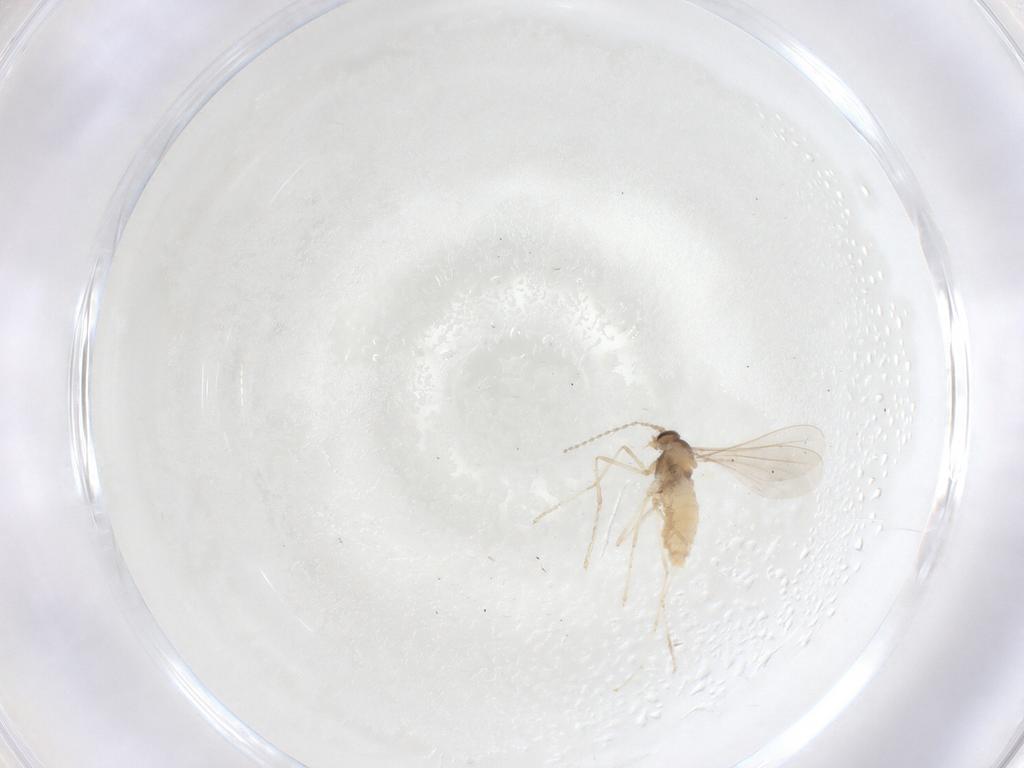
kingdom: Animalia
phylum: Arthropoda
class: Insecta
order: Diptera
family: Cecidomyiidae
